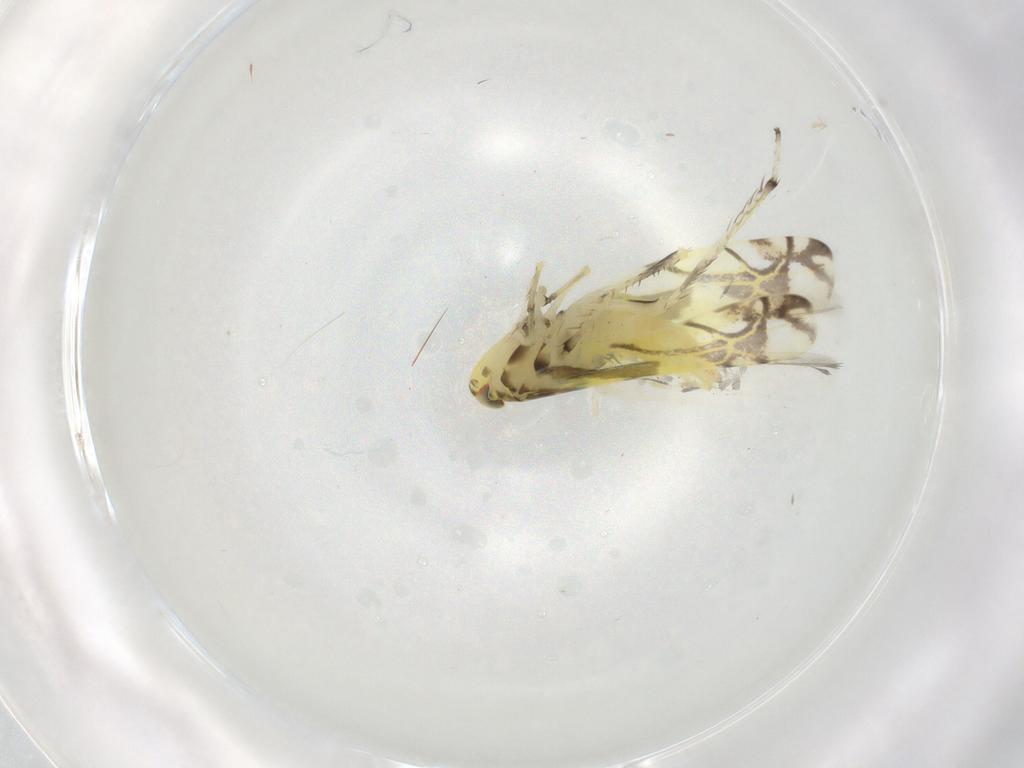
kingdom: Animalia
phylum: Arthropoda
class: Insecta
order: Hemiptera
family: Cicadellidae
